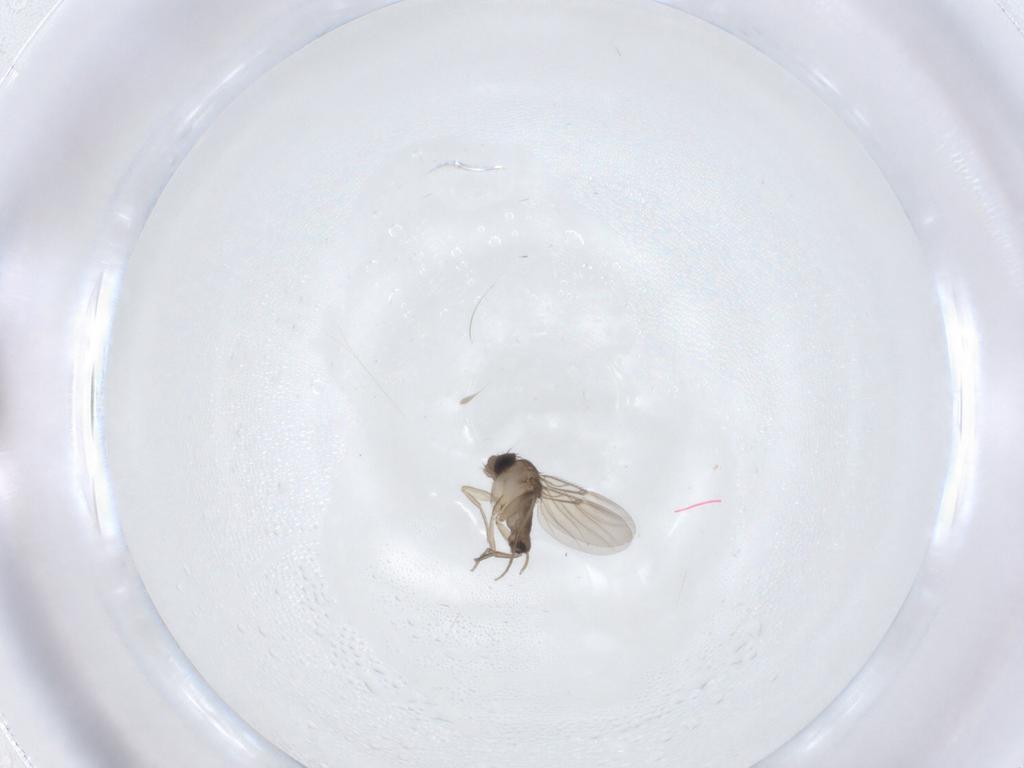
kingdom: Animalia
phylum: Arthropoda
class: Insecta
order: Diptera
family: Phoridae
